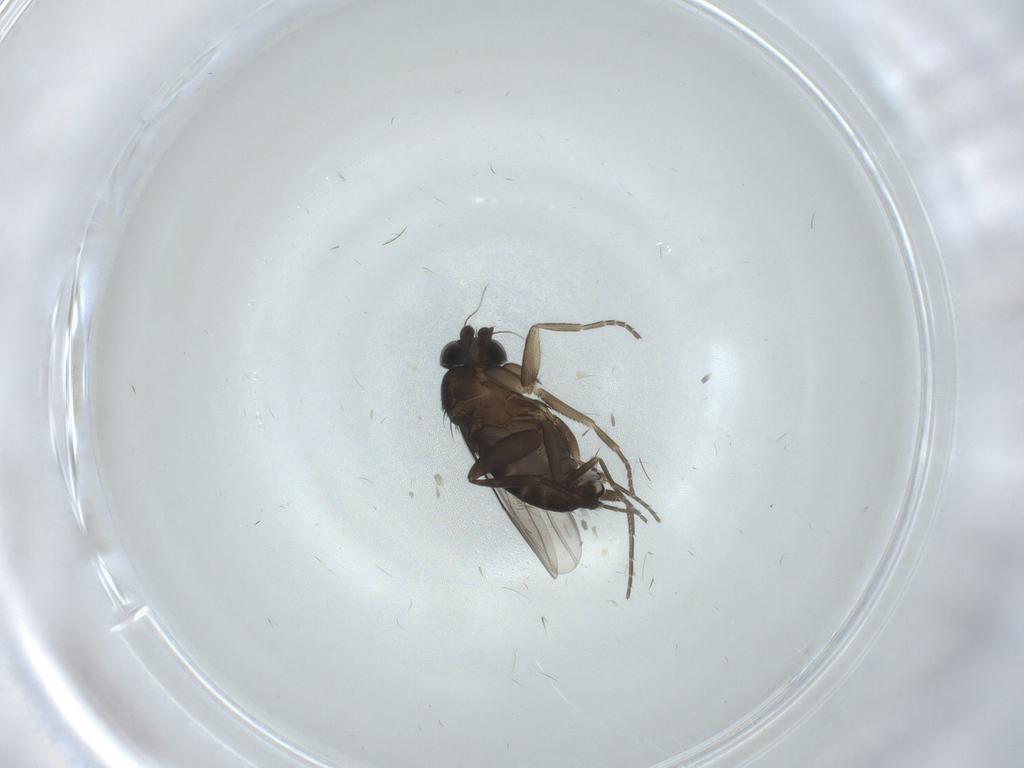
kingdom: Animalia
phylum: Arthropoda
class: Insecta
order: Diptera
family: Phoridae
